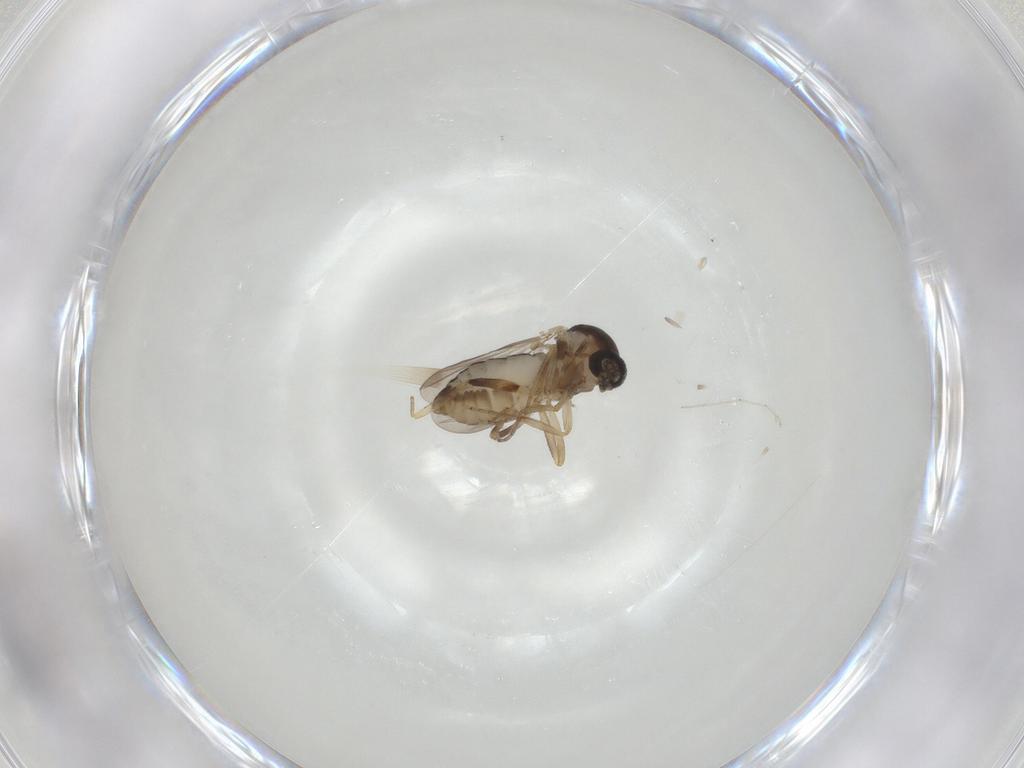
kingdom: Animalia
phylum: Arthropoda
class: Insecta
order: Diptera
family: Ceratopogonidae
